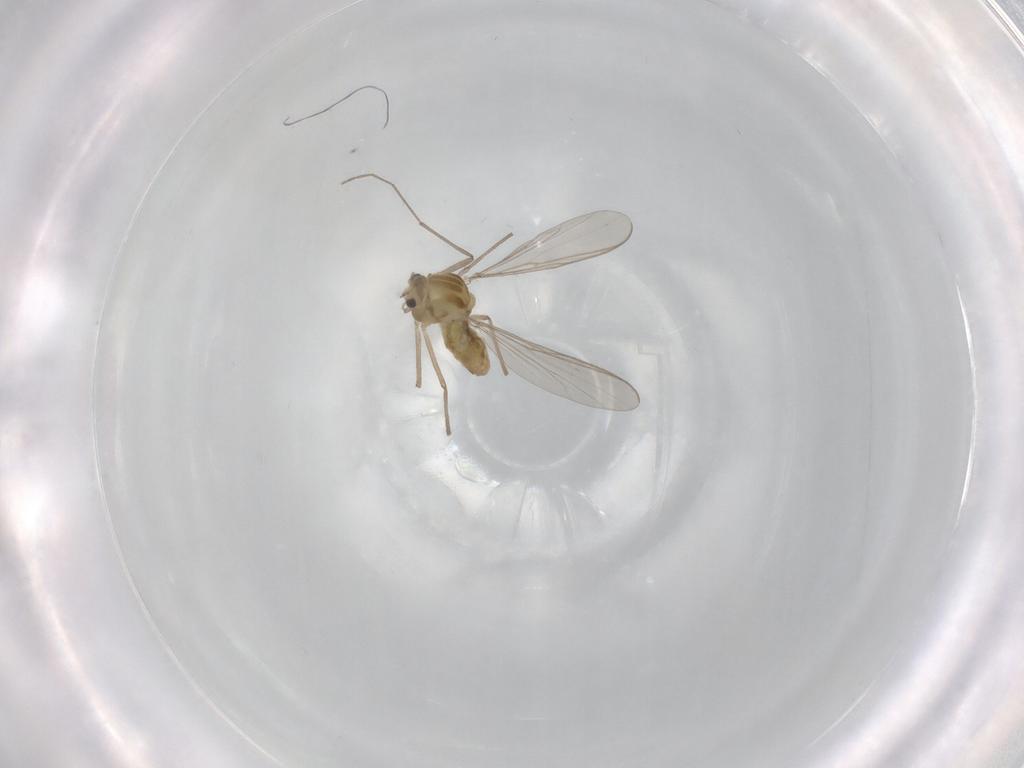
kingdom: Animalia
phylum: Arthropoda
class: Insecta
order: Diptera
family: Chironomidae
